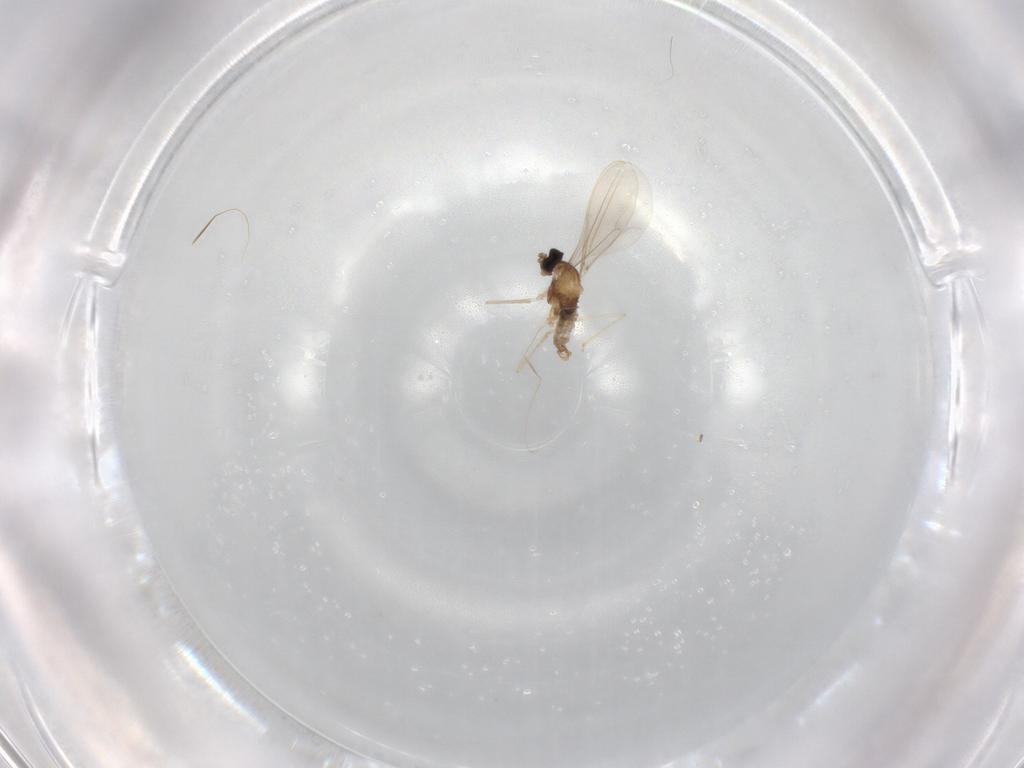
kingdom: Animalia
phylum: Arthropoda
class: Insecta
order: Diptera
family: Cecidomyiidae
